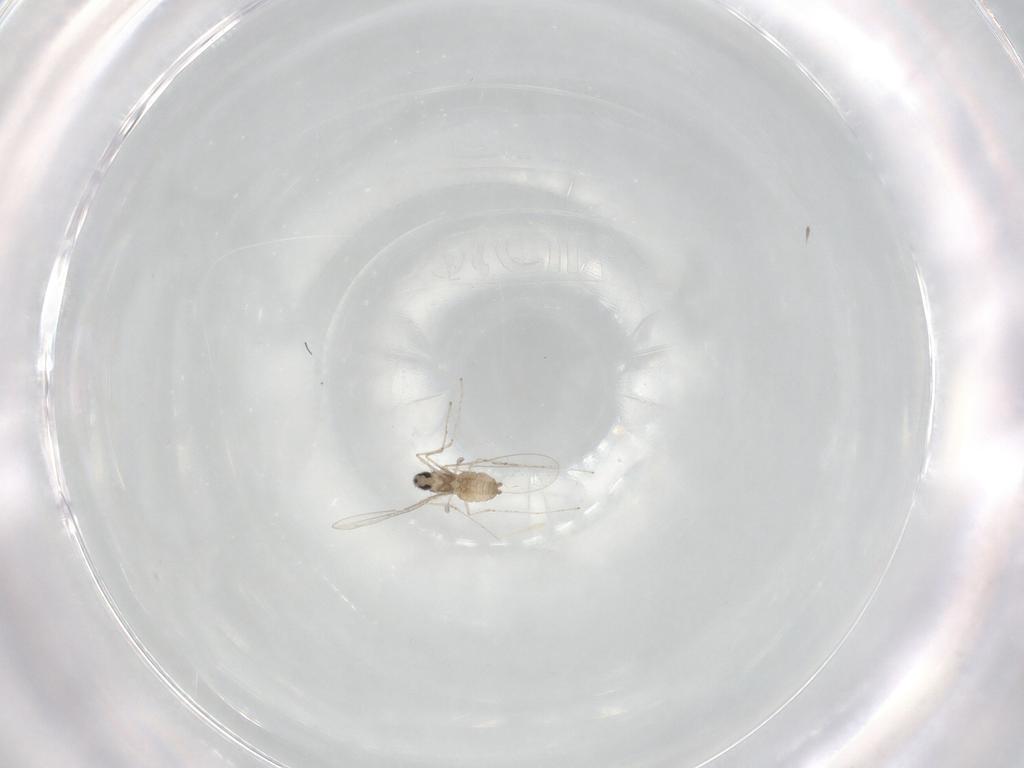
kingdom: Animalia
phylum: Arthropoda
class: Insecta
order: Diptera
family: Cecidomyiidae
